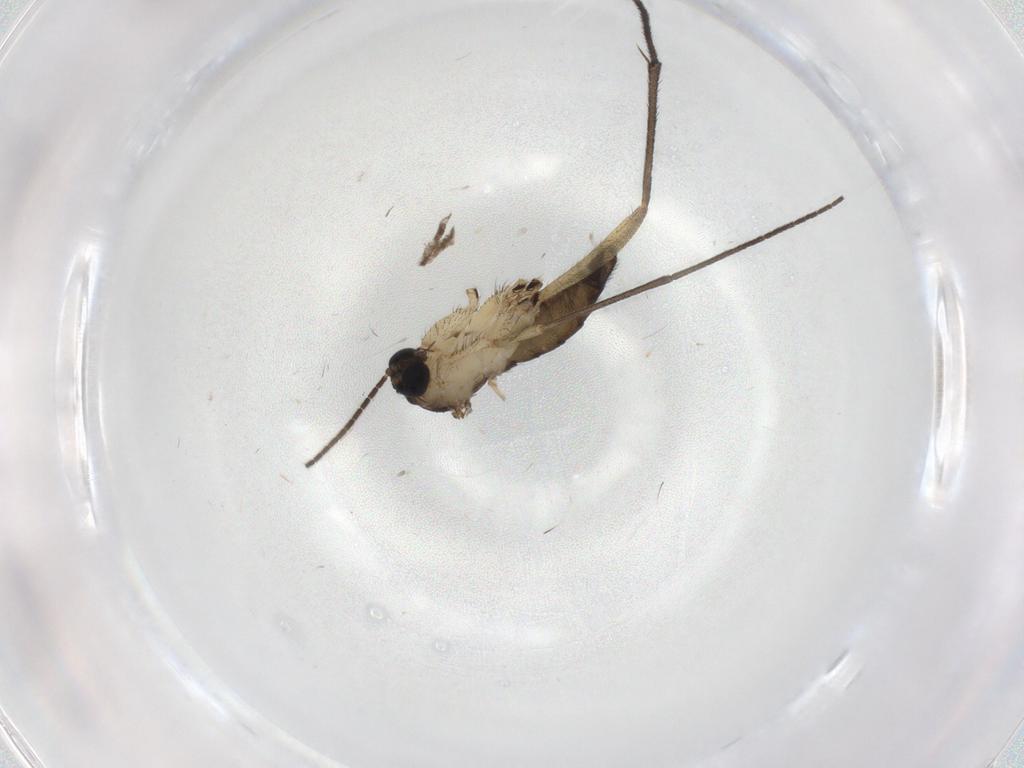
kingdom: Animalia
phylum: Arthropoda
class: Insecta
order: Diptera
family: Sciaridae
